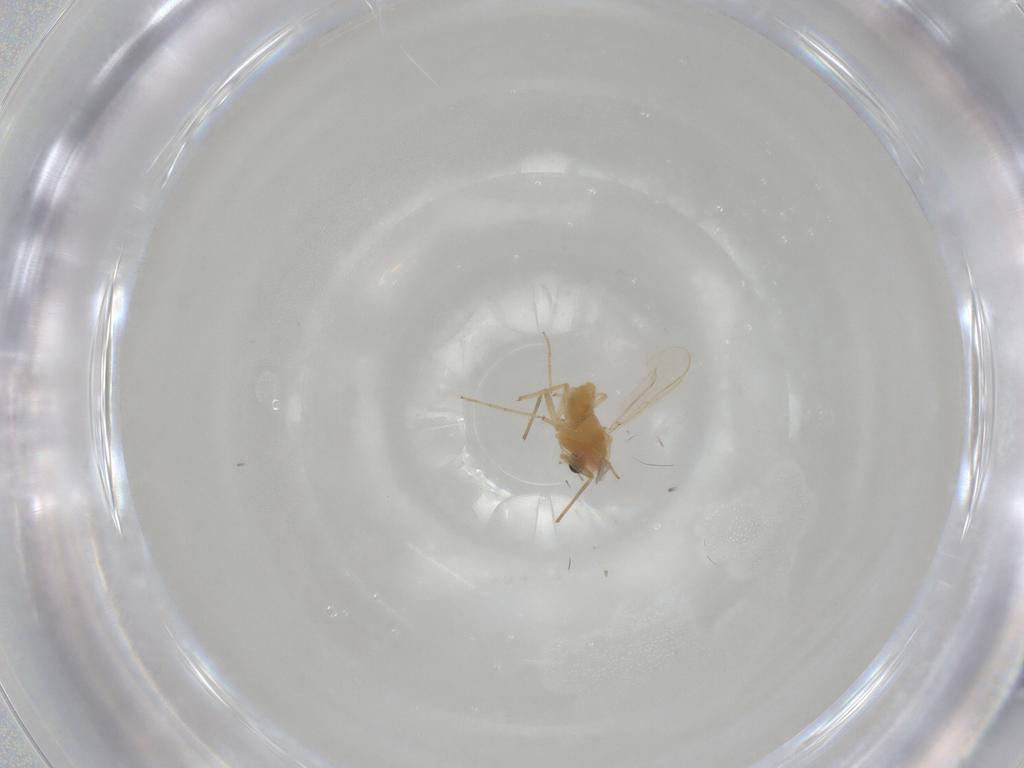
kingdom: Animalia
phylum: Arthropoda
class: Insecta
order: Diptera
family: Chironomidae
